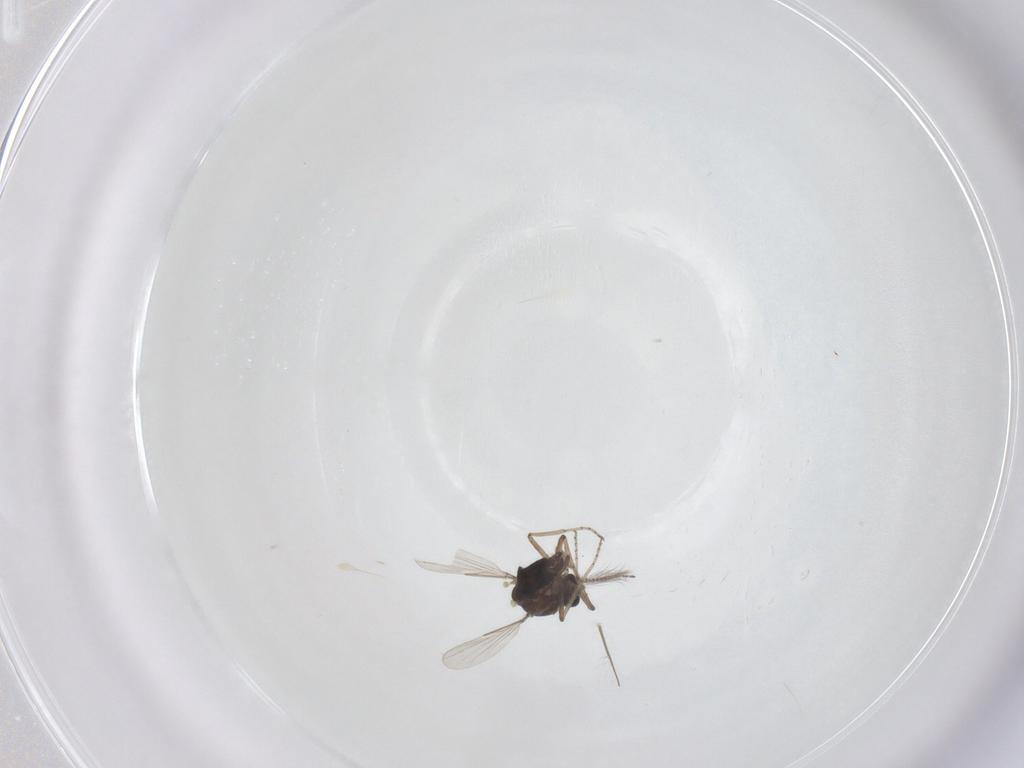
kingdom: Animalia
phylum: Arthropoda
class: Insecta
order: Diptera
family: Ceratopogonidae
